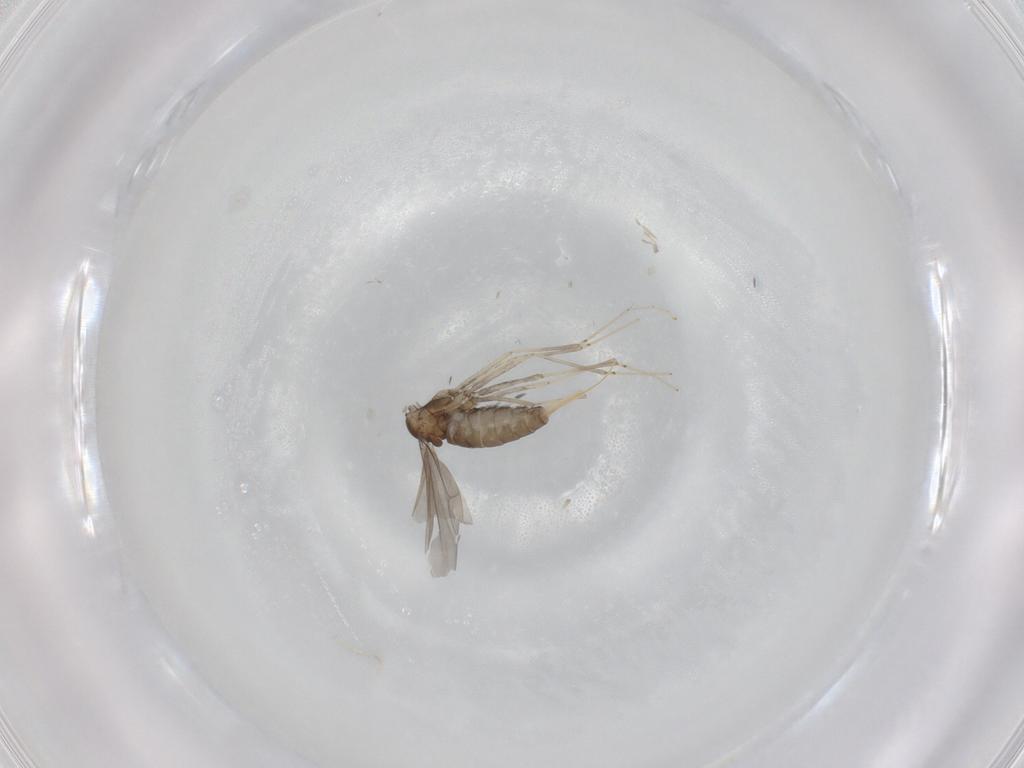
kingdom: Animalia
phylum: Arthropoda
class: Insecta
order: Diptera
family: Cecidomyiidae
